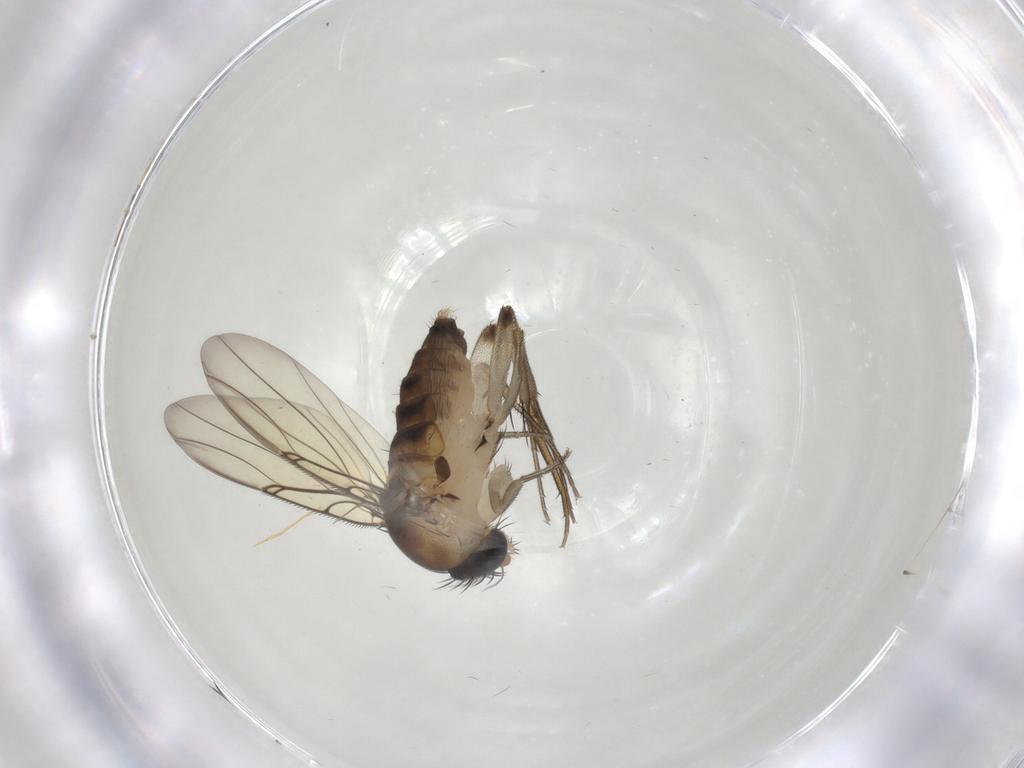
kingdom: Animalia
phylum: Arthropoda
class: Insecta
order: Diptera
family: Phoridae
